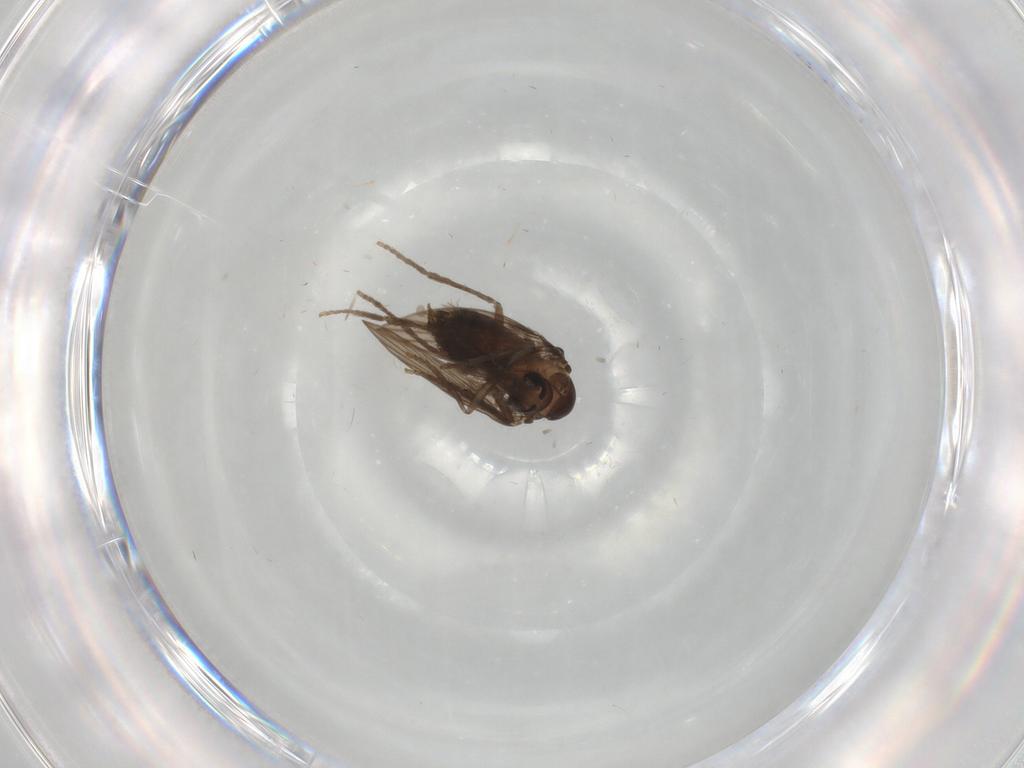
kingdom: Animalia
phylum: Arthropoda
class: Insecta
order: Diptera
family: Psychodidae
